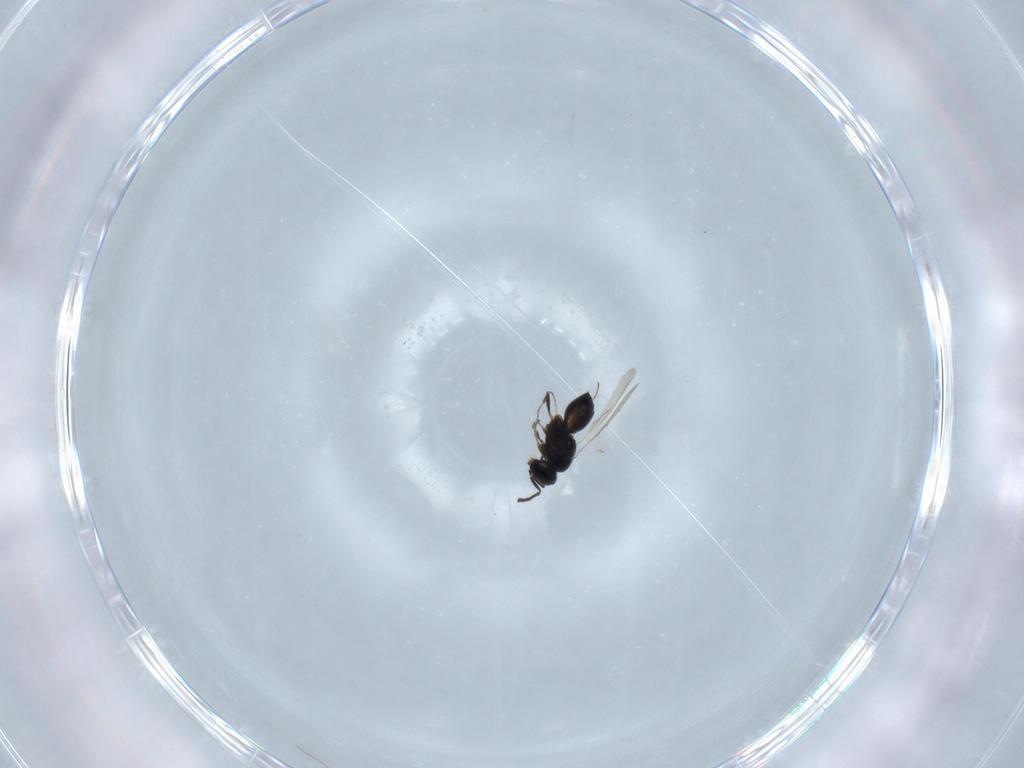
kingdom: Animalia
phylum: Arthropoda
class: Insecta
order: Hymenoptera
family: Scelionidae
